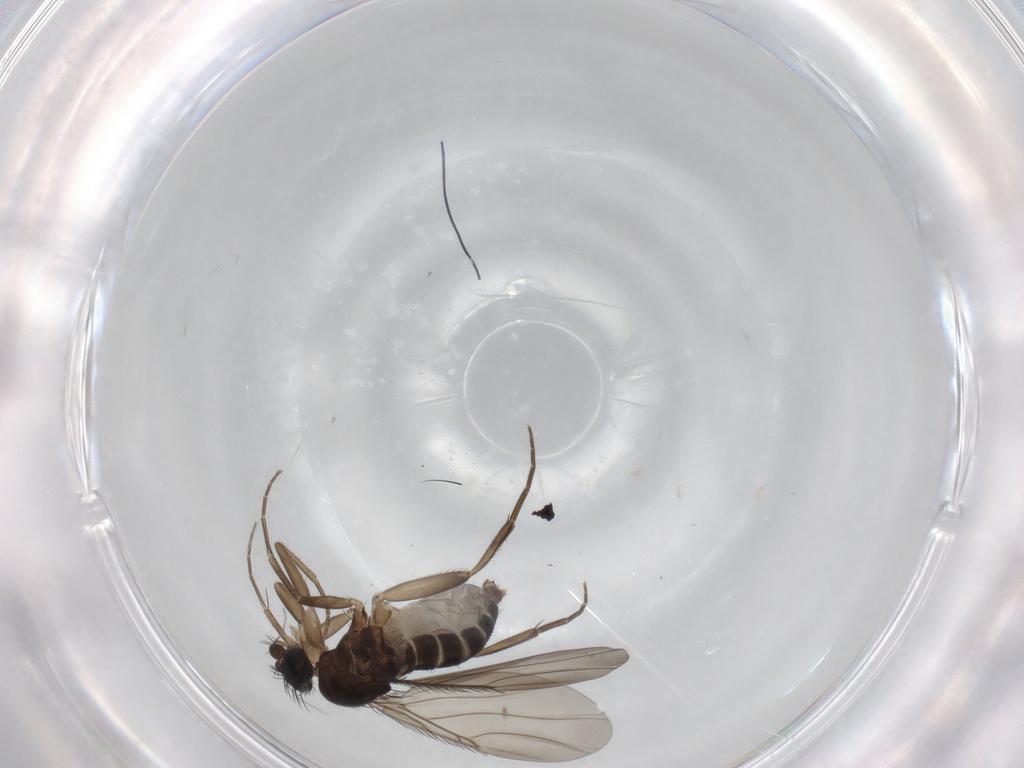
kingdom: Animalia
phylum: Arthropoda
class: Insecta
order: Diptera
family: Phoridae
